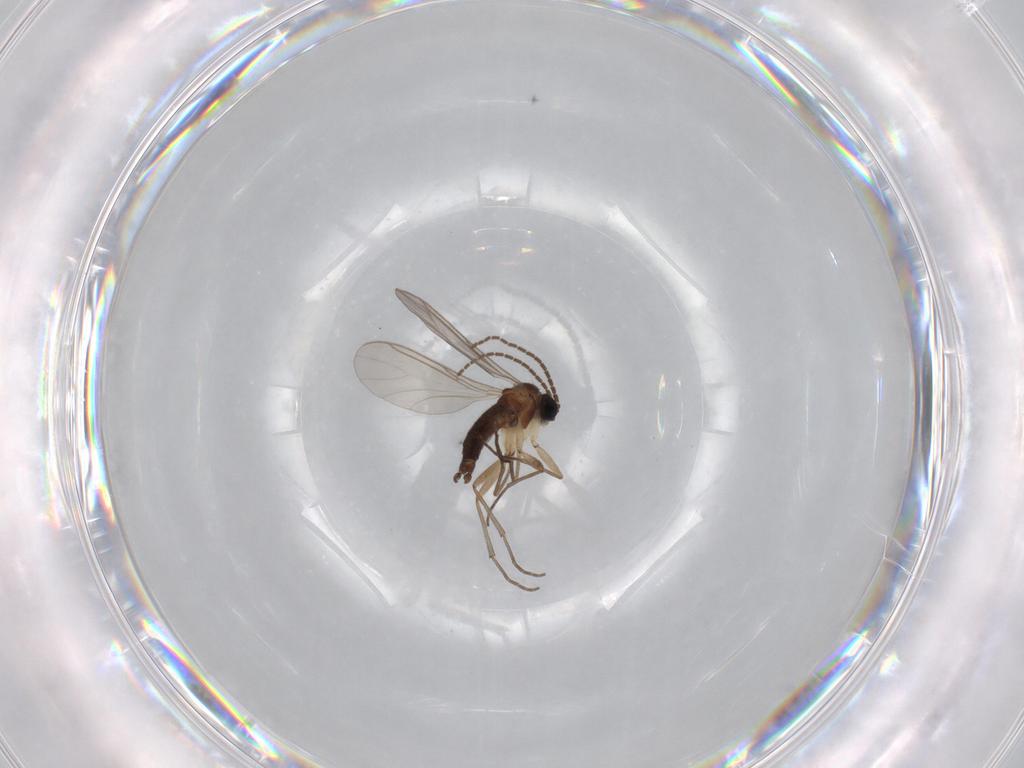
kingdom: Animalia
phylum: Arthropoda
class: Insecta
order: Diptera
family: Sciaridae
